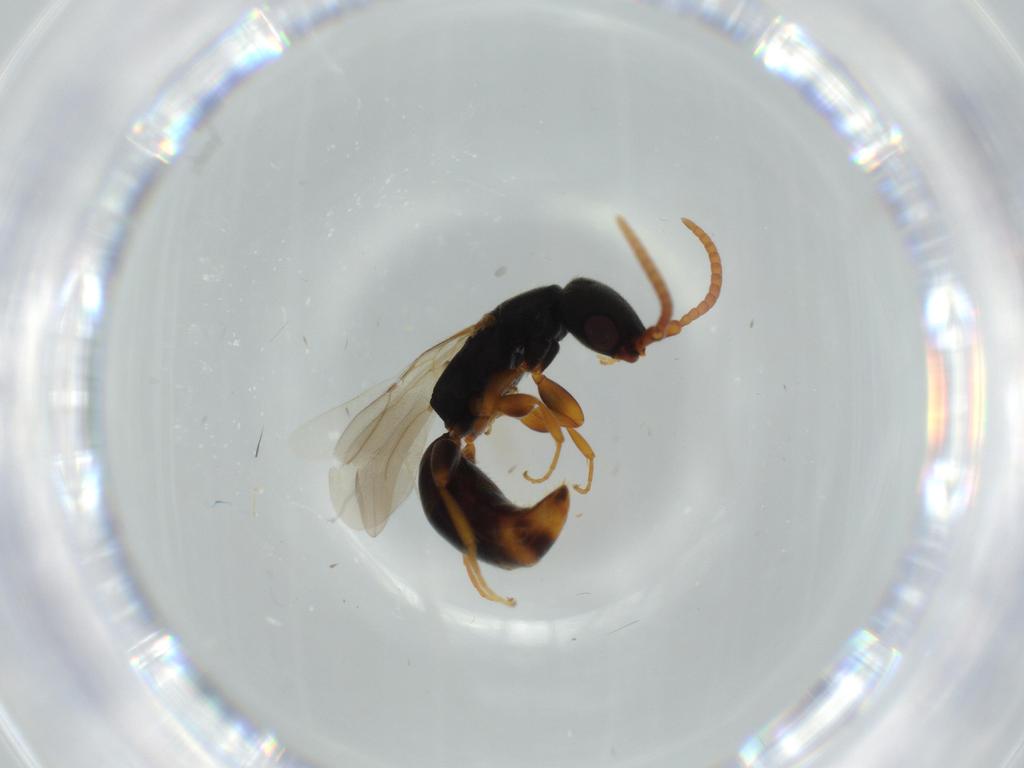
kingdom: Animalia
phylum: Arthropoda
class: Insecta
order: Hymenoptera
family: Bethylidae
